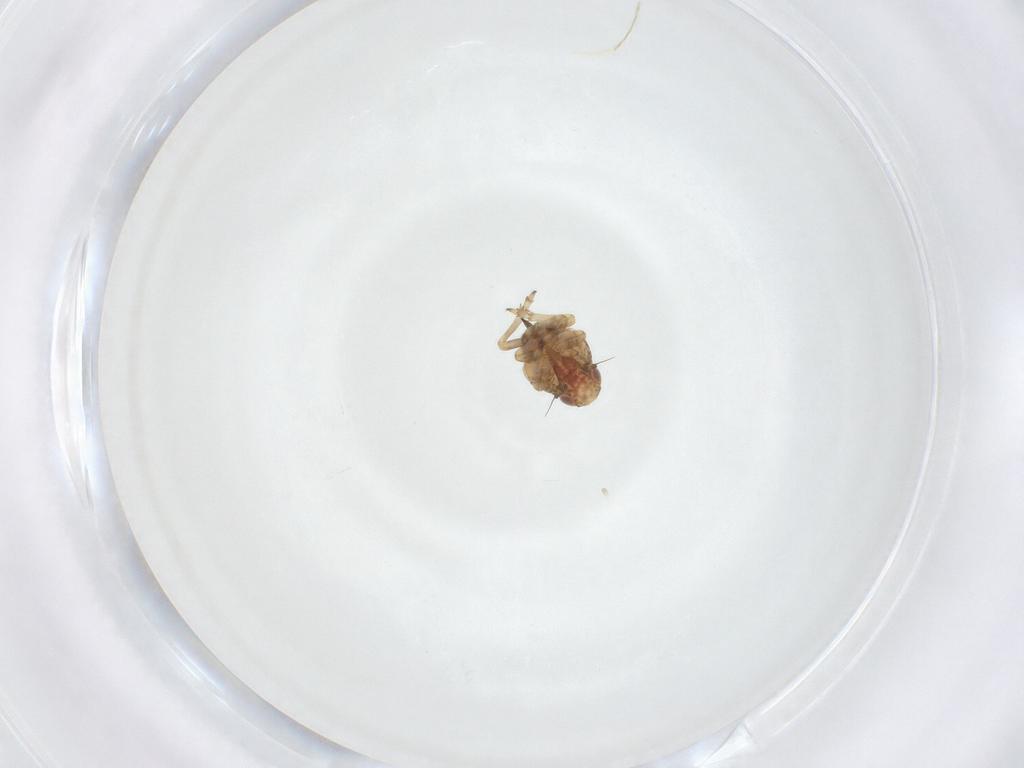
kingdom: Animalia
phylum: Arthropoda
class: Insecta
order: Hemiptera
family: Tropiduchidae
